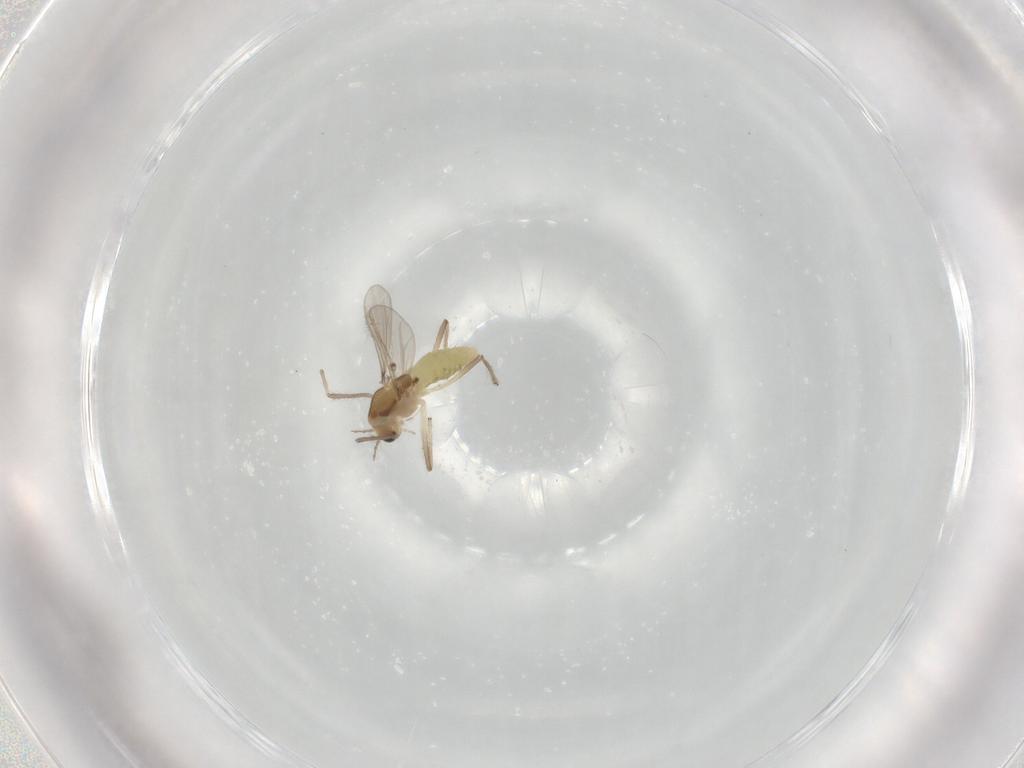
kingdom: Animalia
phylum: Arthropoda
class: Insecta
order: Diptera
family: Chironomidae
